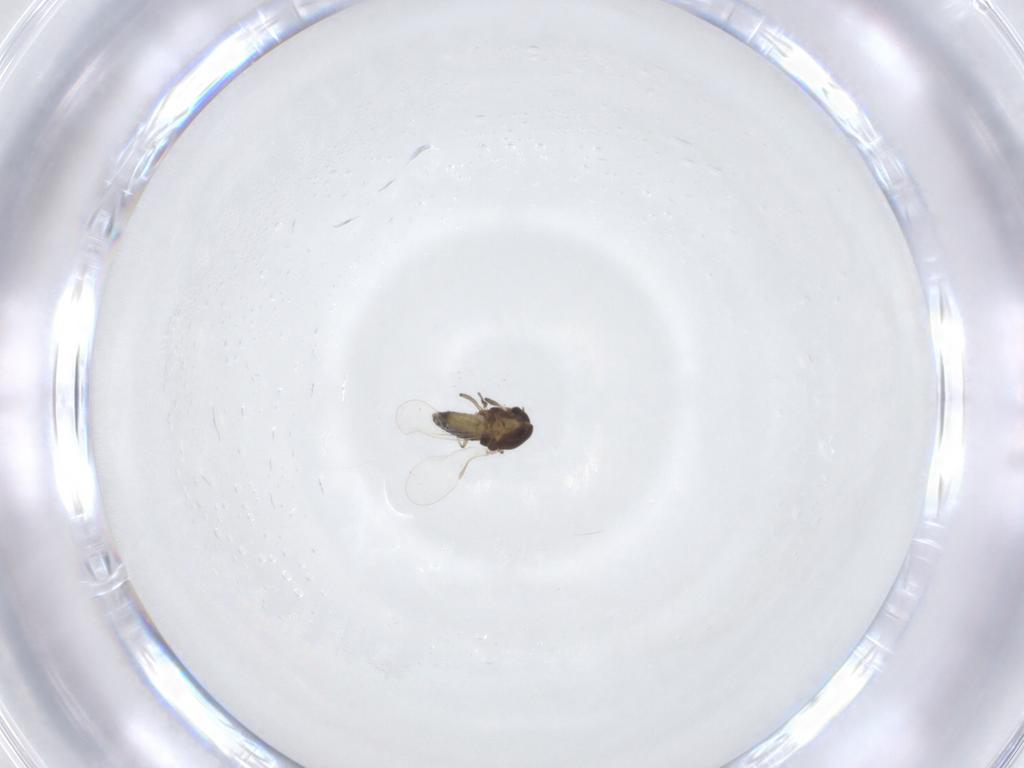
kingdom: Animalia
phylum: Arthropoda
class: Insecta
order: Diptera
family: Chironomidae
